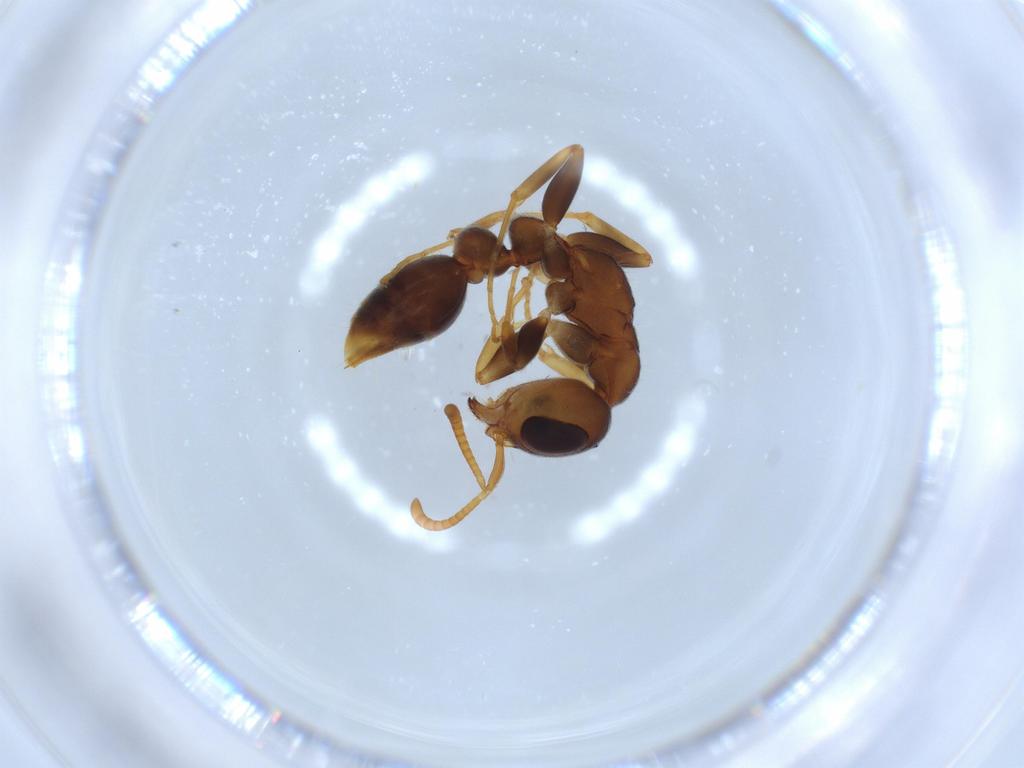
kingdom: Animalia
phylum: Arthropoda
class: Insecta
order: Hymenoptera
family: Formicidae
